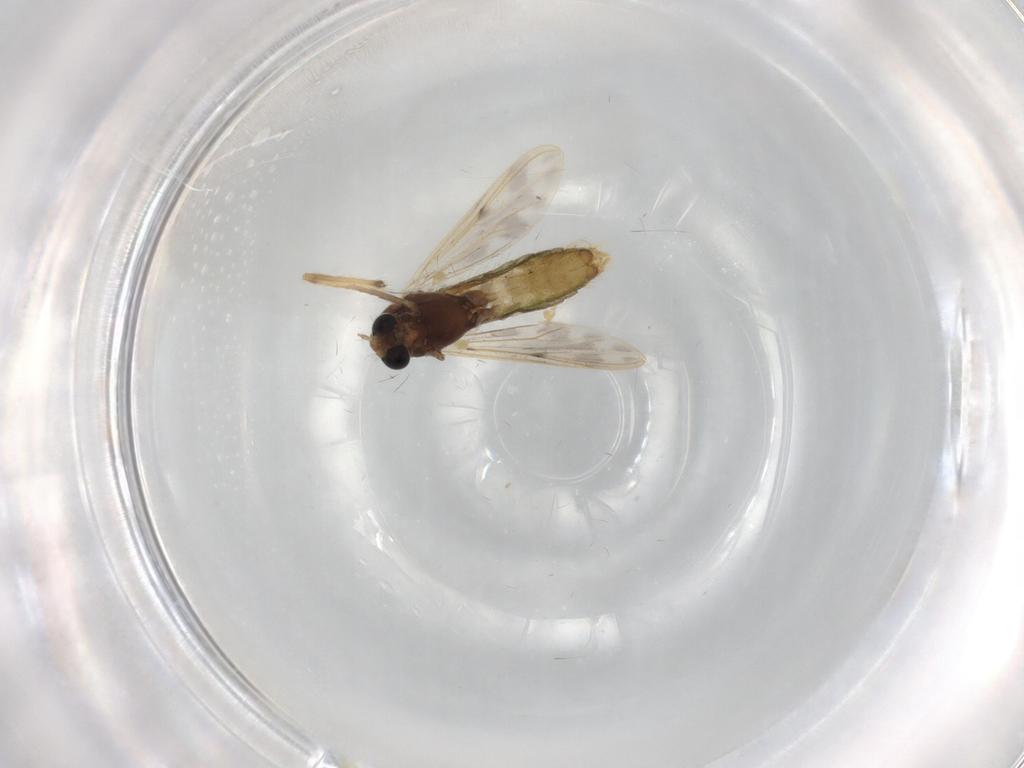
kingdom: Animalia
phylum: Arthropoda
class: Insecta
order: Diptera
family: Chironomidae
